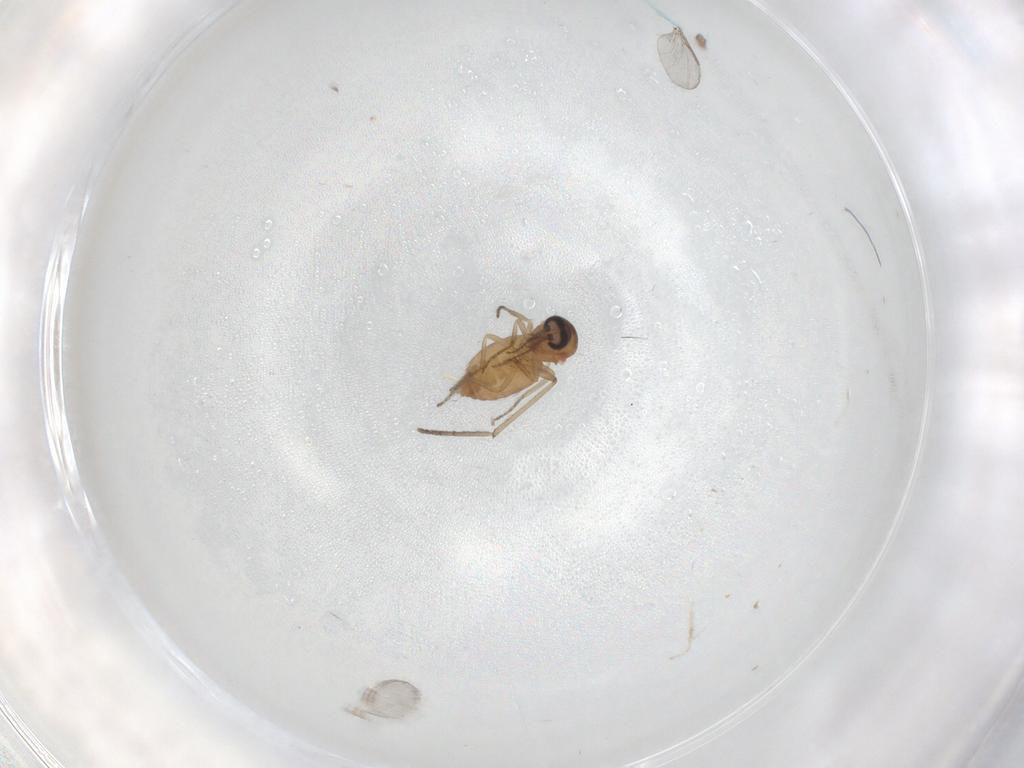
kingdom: Animalia
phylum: Arthropoda
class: Insecta
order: Diptera
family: Ceratopogonidae
